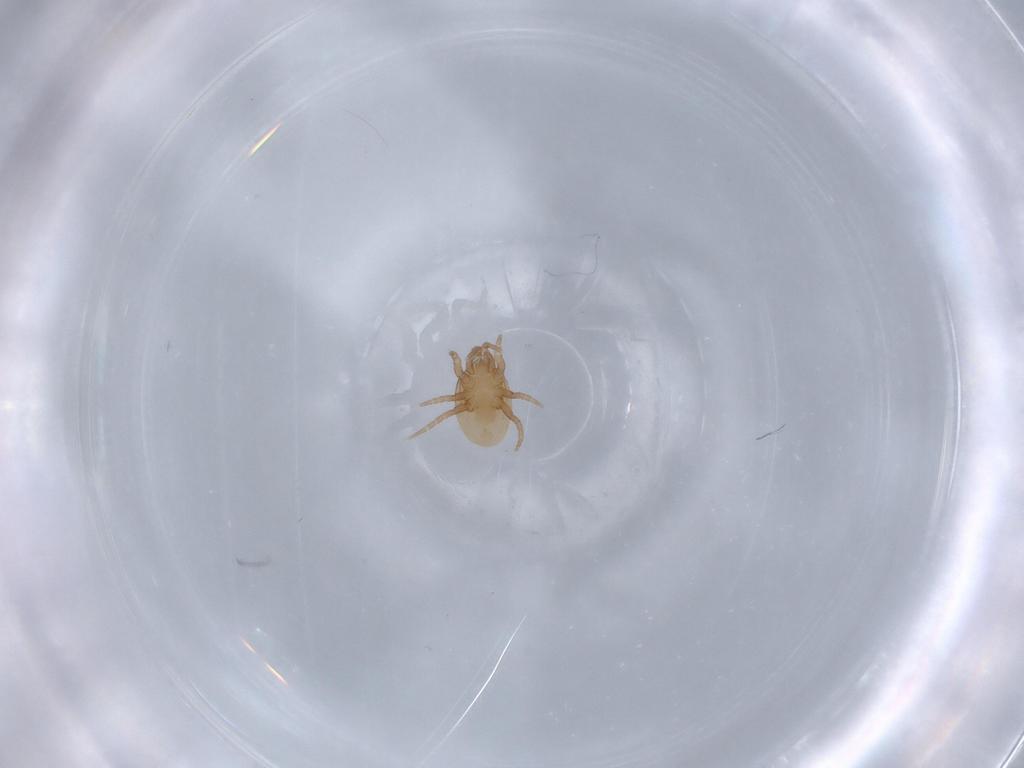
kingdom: Animalia
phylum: Arthropoda
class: Arachnida
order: Mesostigmata
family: Laelapidae
